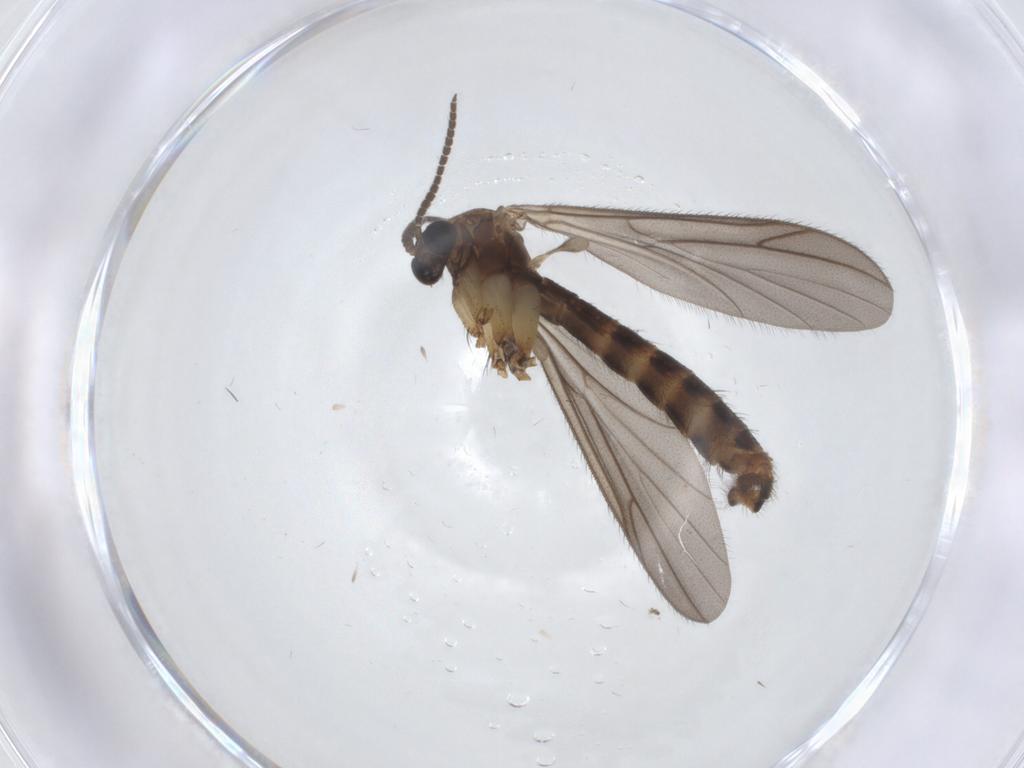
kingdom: Animalia
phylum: Arthropoda
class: Insecta
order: Diptera
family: Ditomyiidae
